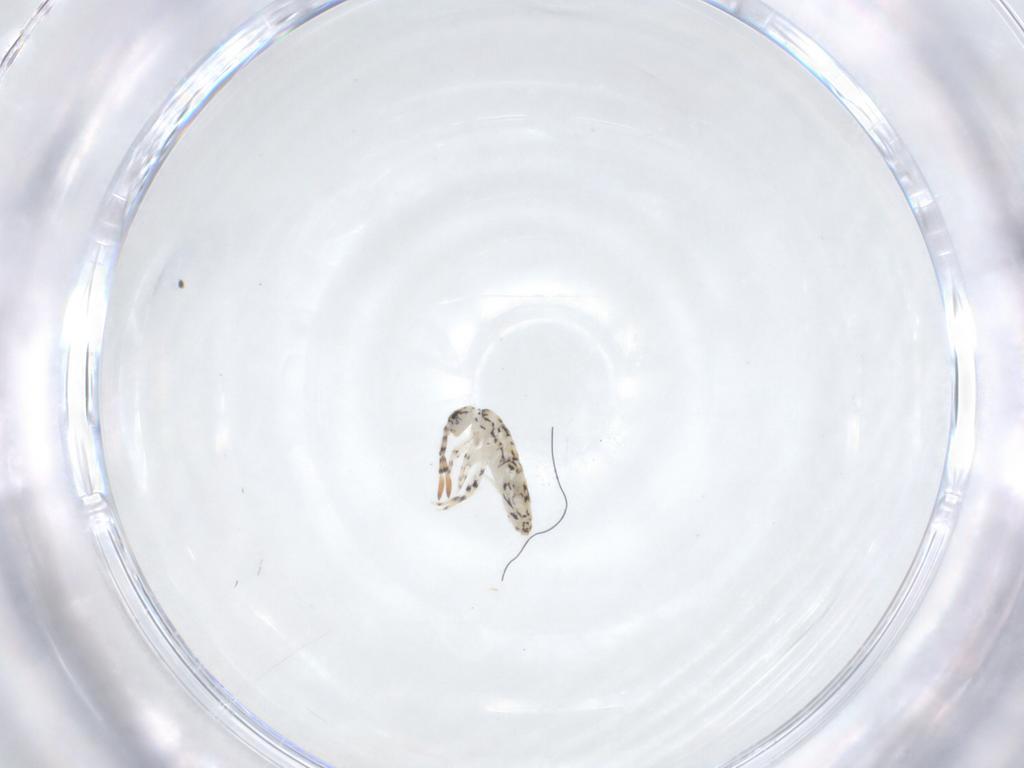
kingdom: Animalia
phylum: Arthropoda
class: Collembola
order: Entomobryomorpha
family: Entomobryidae
